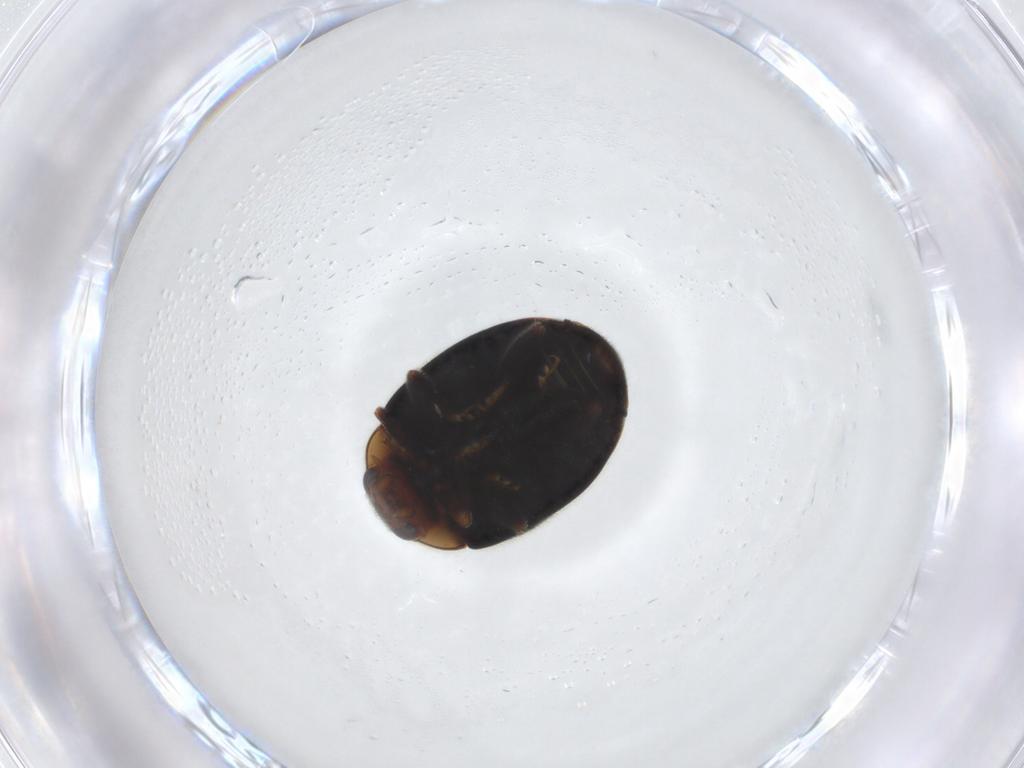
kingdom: Animalia
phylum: Arthropoda
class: Insecta
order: Coleoptera
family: Coccinellidae
